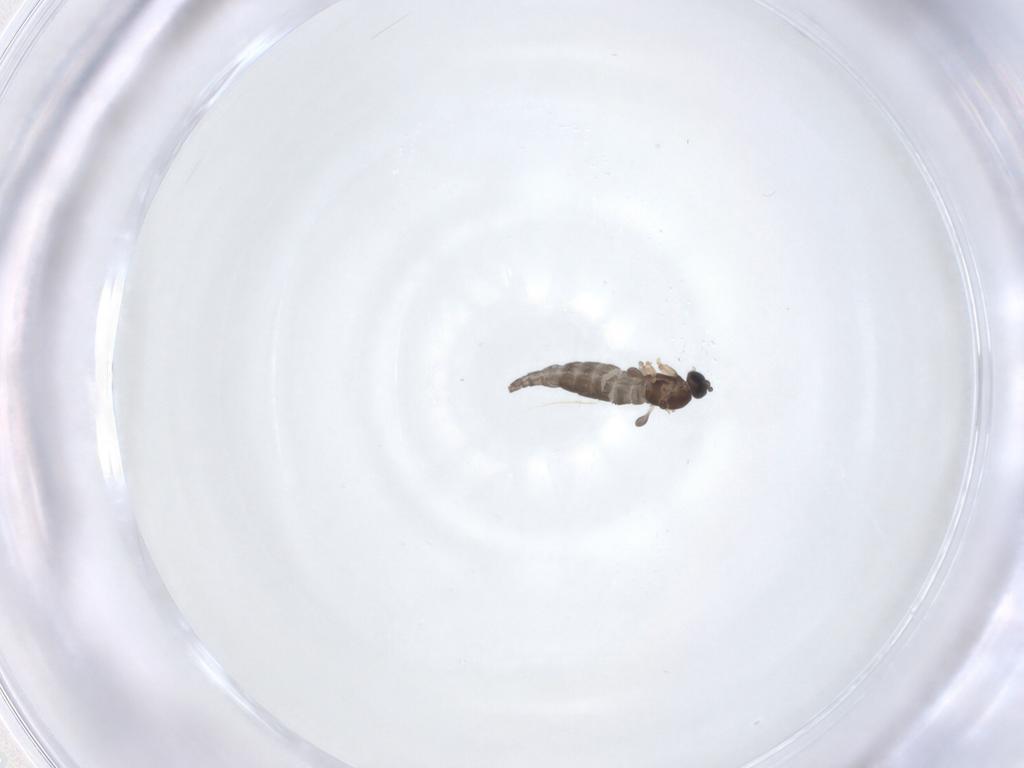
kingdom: Animalia
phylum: Arthropoda
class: Insecta
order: Diptera
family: Sciaridae
